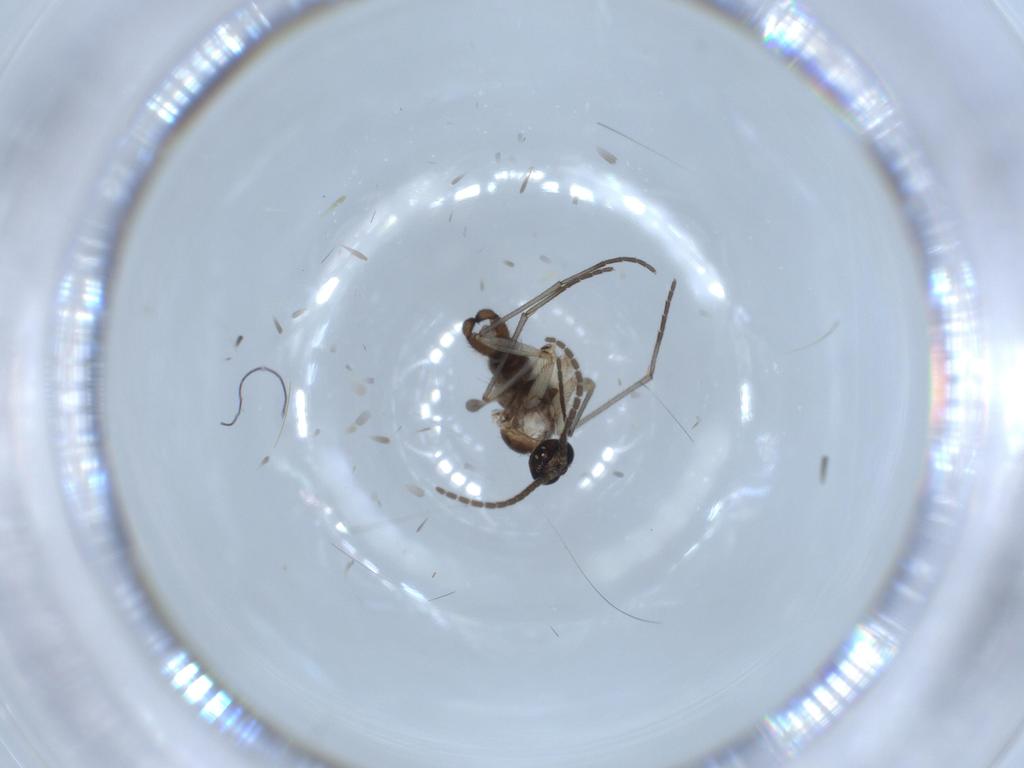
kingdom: Animalia
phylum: Arthropoda
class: Insecta
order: Diptera
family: Sciaridae
